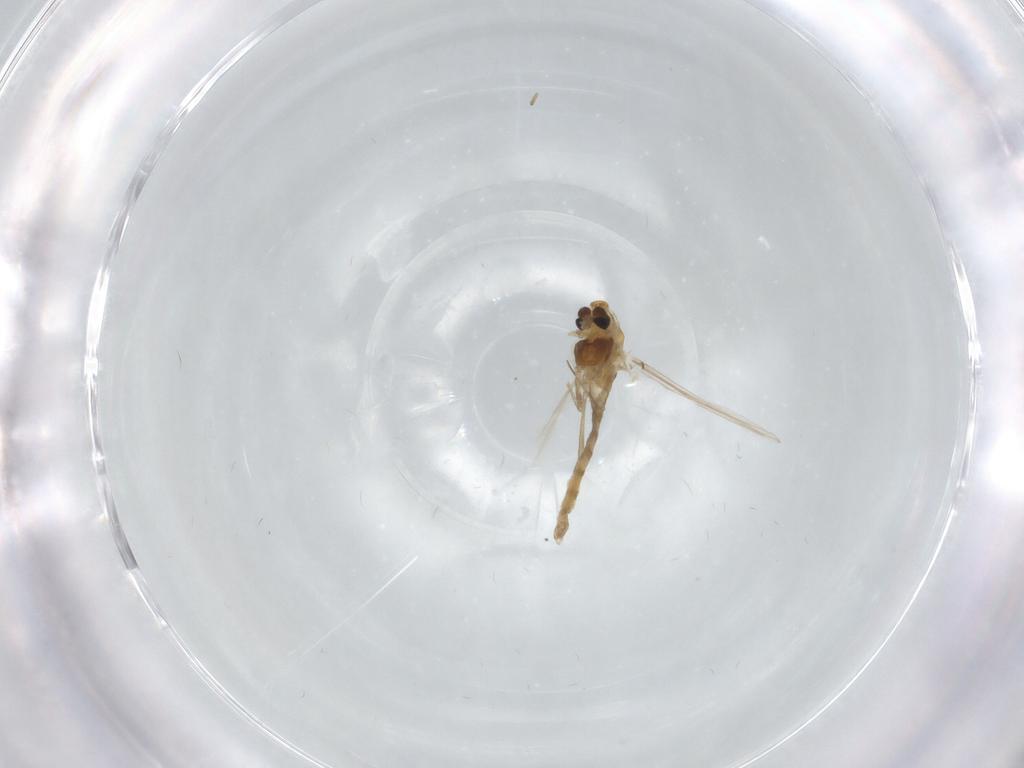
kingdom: Animalia
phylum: Arthropoda
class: Insecta
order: Diptera
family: Chironomidae
